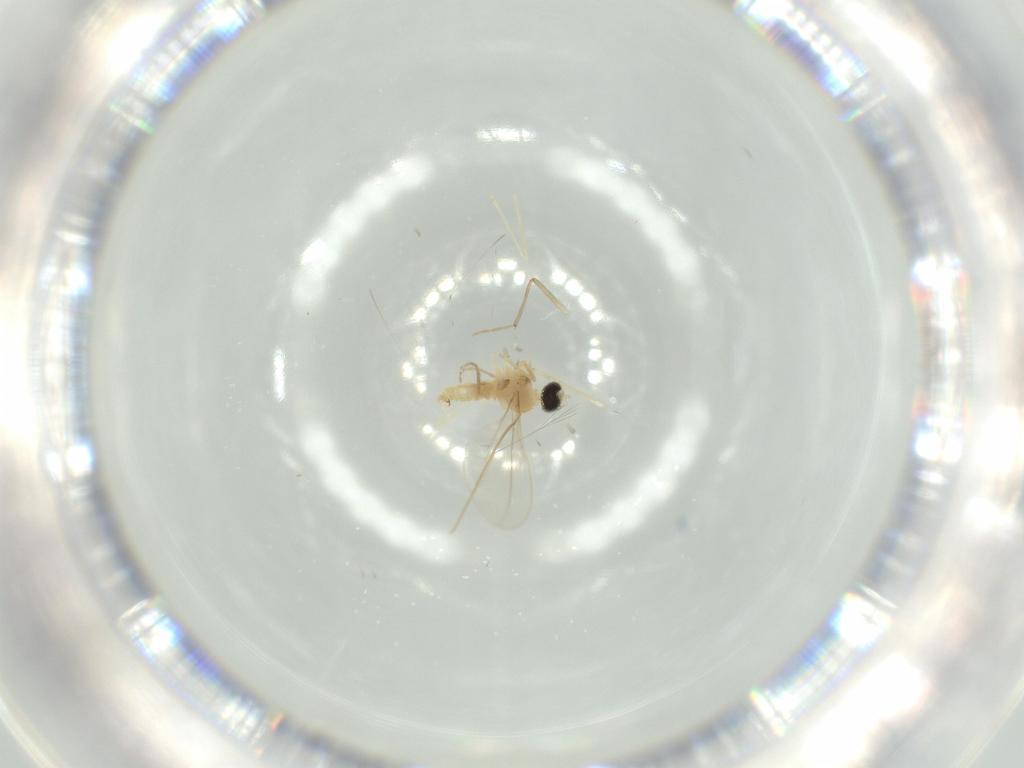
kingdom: Animalia
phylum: Arthropoda
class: Insecta
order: Diptera
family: Cecidomyiidae
